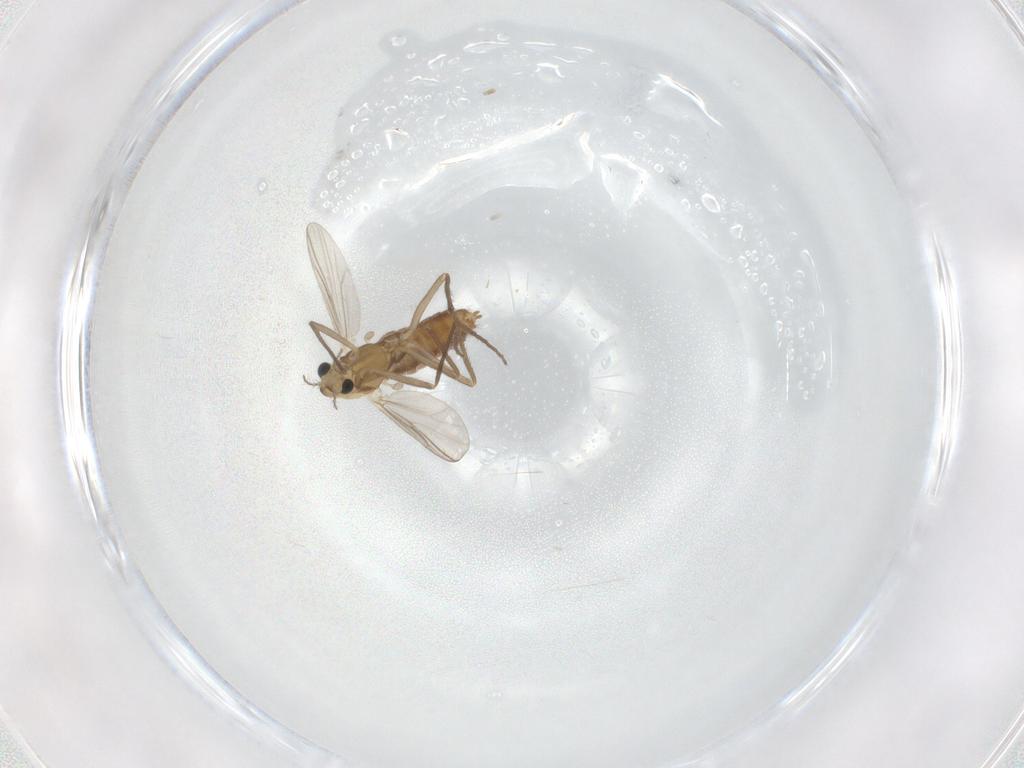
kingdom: Animalia
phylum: Arthropoda
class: Insecta
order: Diptera
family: Chironomidae
